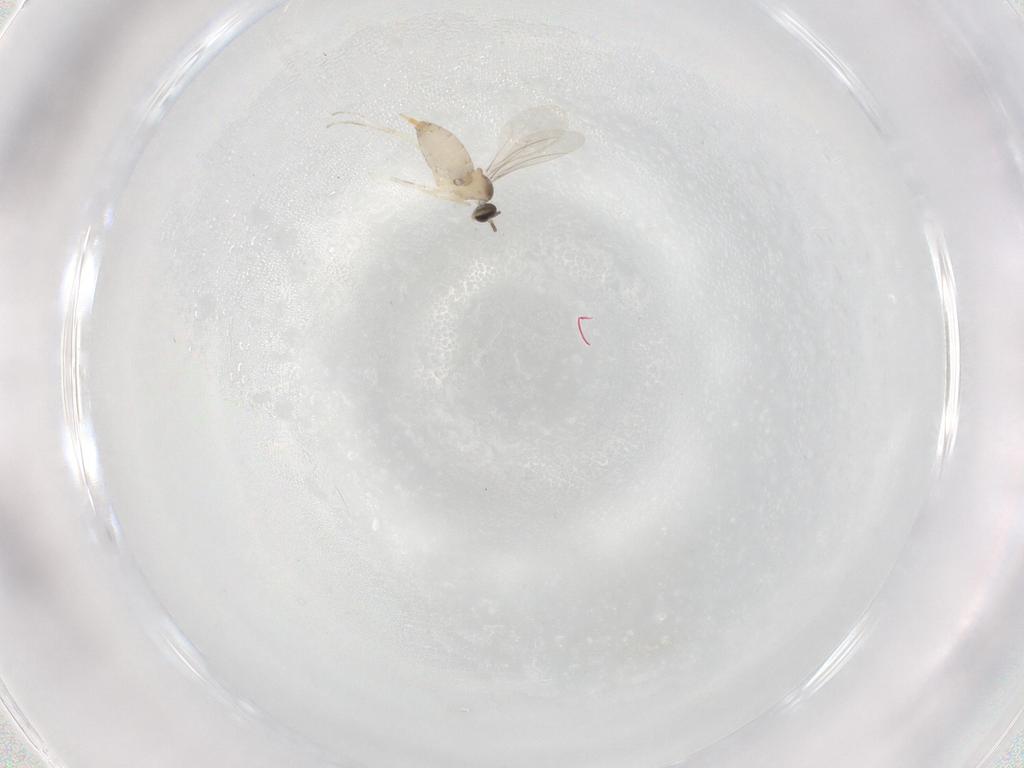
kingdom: Animalia
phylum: Arthropoda
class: Insecta
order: Diptera
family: Cecidomyiidae
